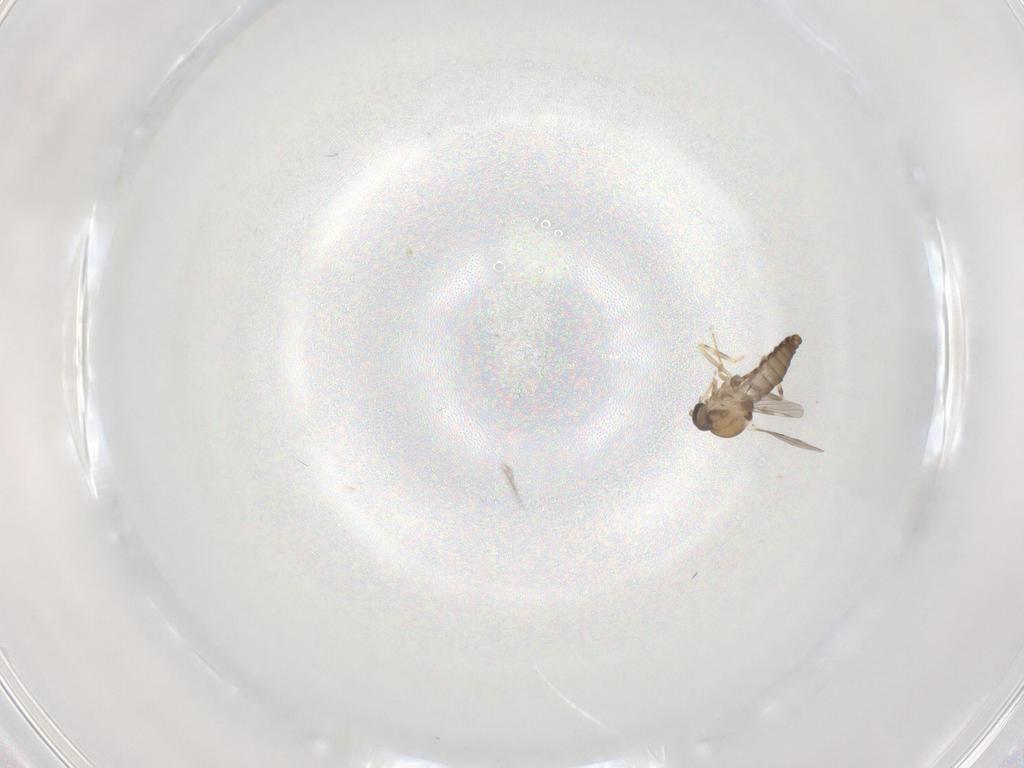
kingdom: Animalia
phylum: Arthropoda
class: Insecta
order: Diptera
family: Ceratopogonidae
